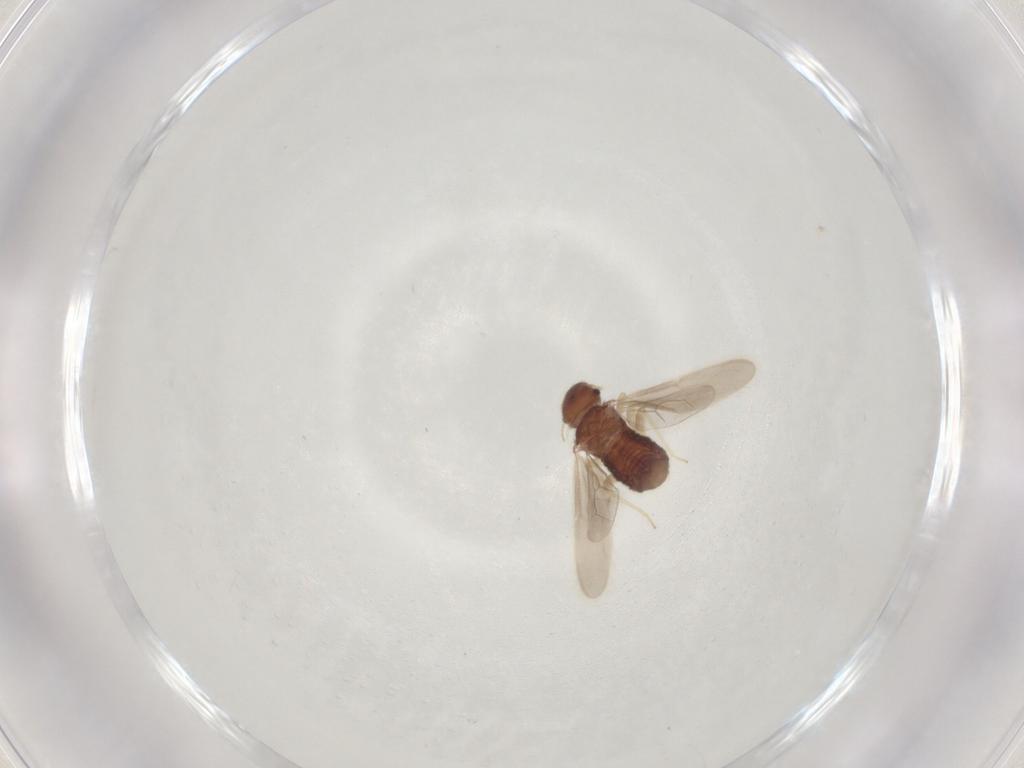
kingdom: Animalia
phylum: Arthropoda
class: Insecta
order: Psocodea
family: Archipsocidae
